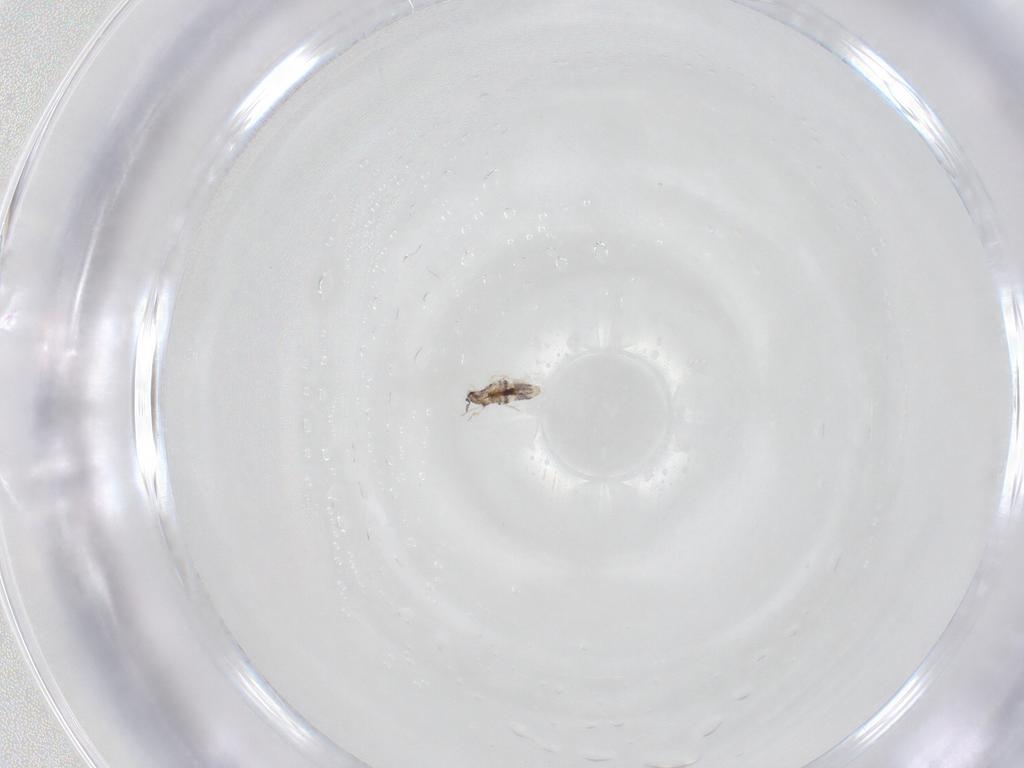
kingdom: Animalia
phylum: Arthropoda
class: Collembola
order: Entomobryomorpha
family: Entomobryidae
